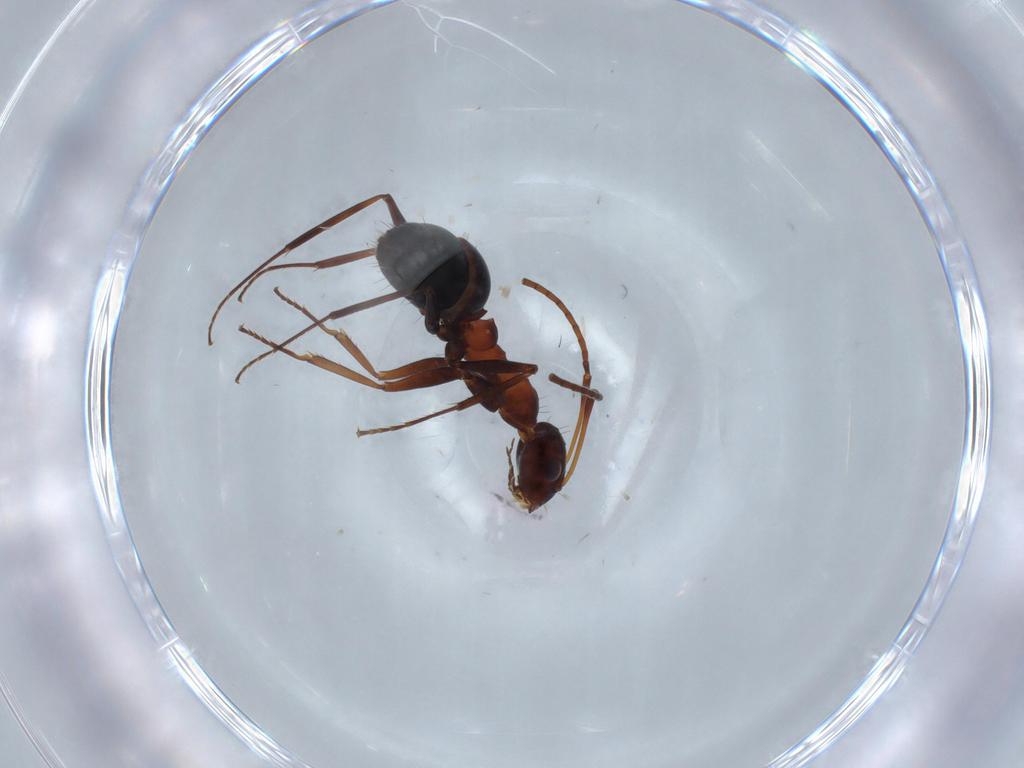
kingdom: Animalia
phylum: Arthropoda
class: Insecta
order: Hymenoptera
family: Formicidae
